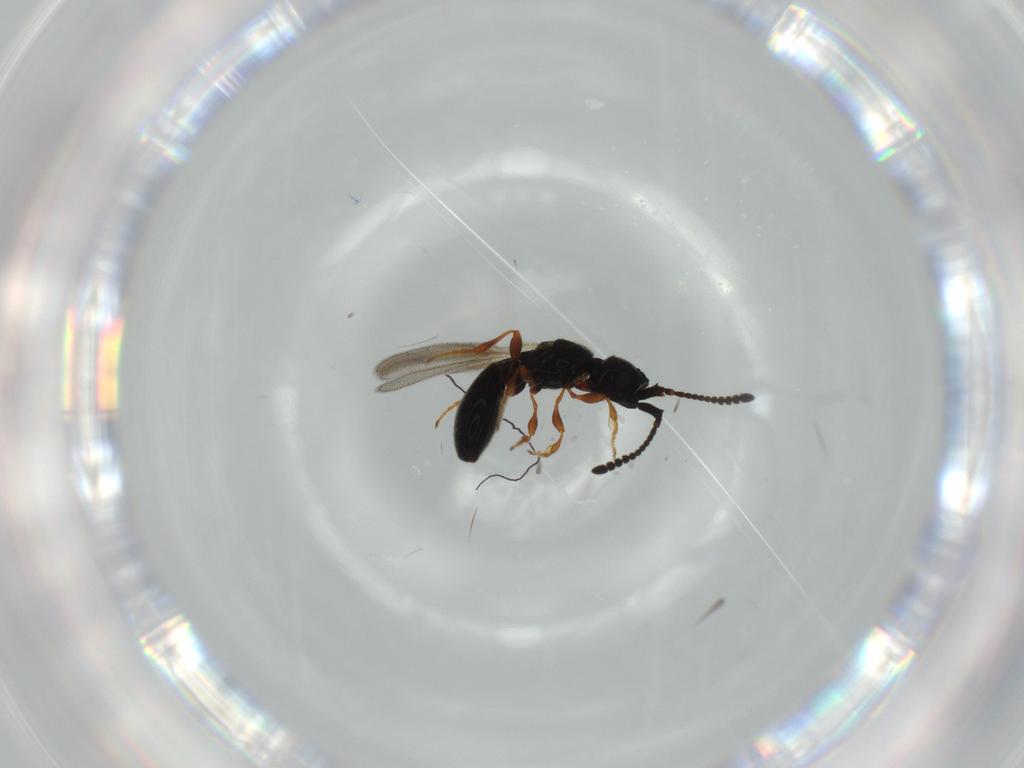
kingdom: Animalia
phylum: Arthropoda
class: Insecta
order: Hymenoptera
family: Diapriidae
